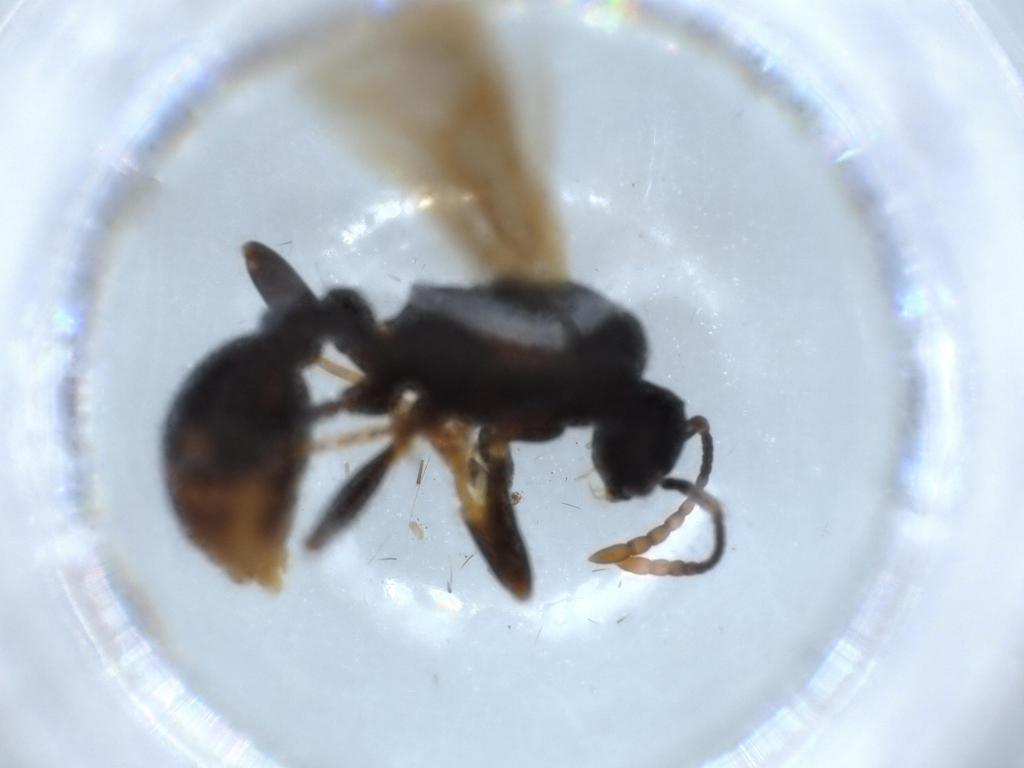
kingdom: Animalia
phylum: Arthropoda
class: Insecta
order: Hymenoptera
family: Formicidae
